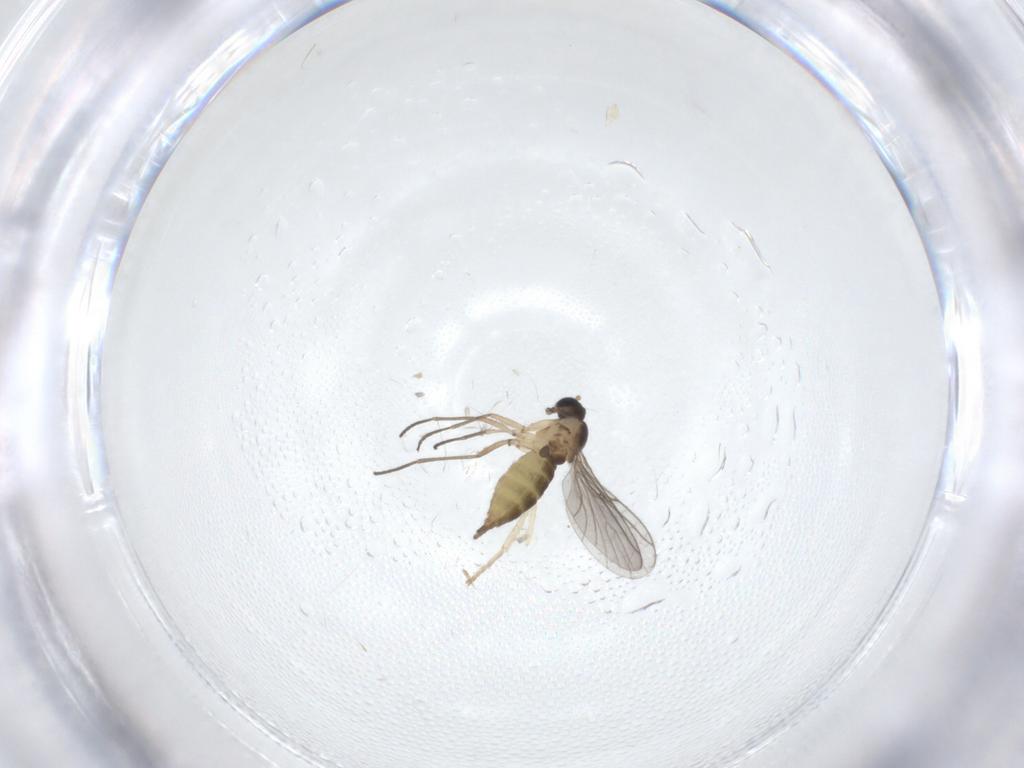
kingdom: Animalia
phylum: Arthropoda
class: Insecta
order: Diptera
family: Sciaridae
